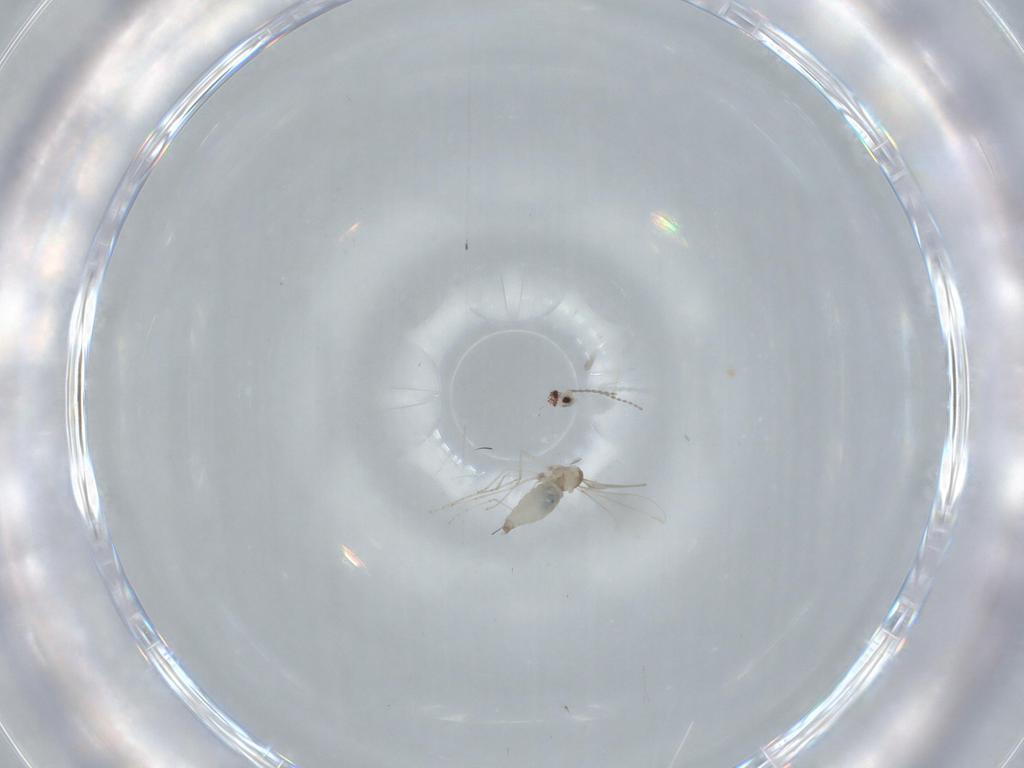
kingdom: Animalia
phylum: Arthropoda
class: Insecta
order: Diptera
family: Cecidomyiidae
